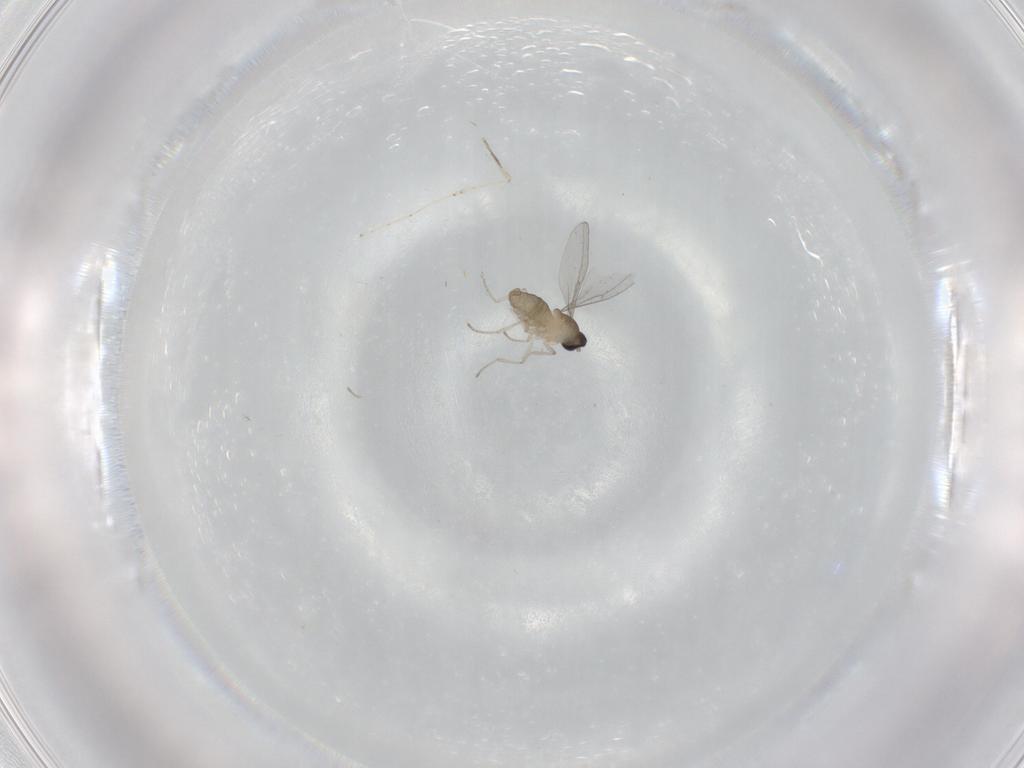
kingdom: Animalia
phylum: Arthropoda
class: Insecta
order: Diptera
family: Cecidomyiidae
